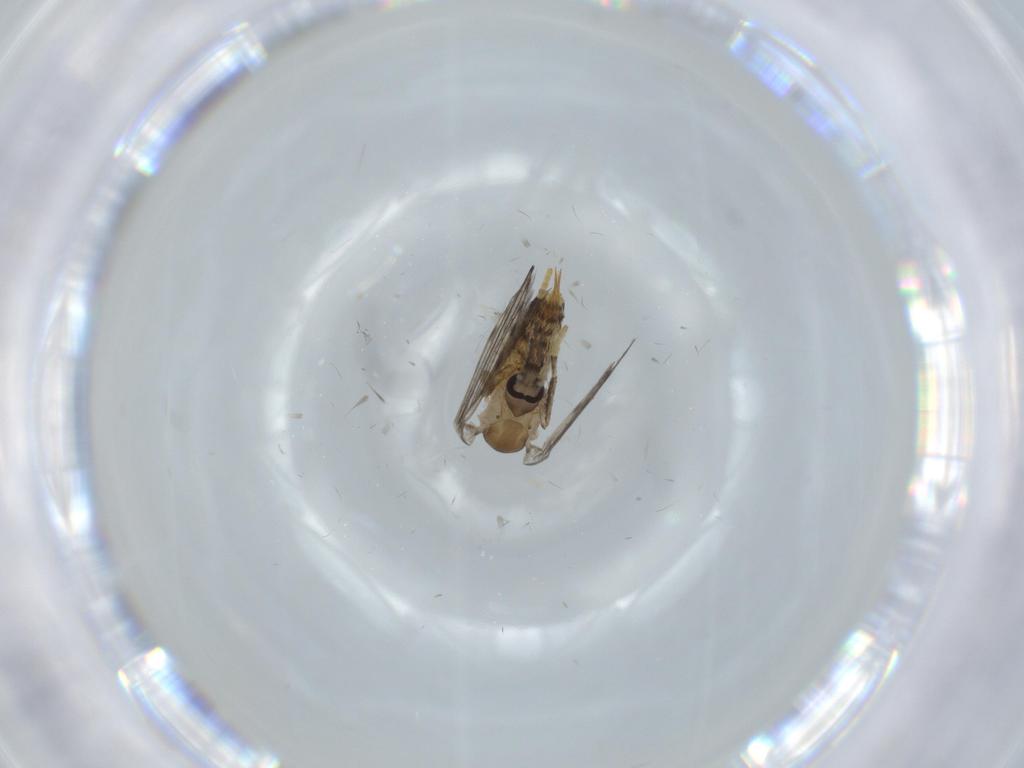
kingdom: Animalia
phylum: Arthropoda
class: Insecta
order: Diptera
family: Psychodidae
